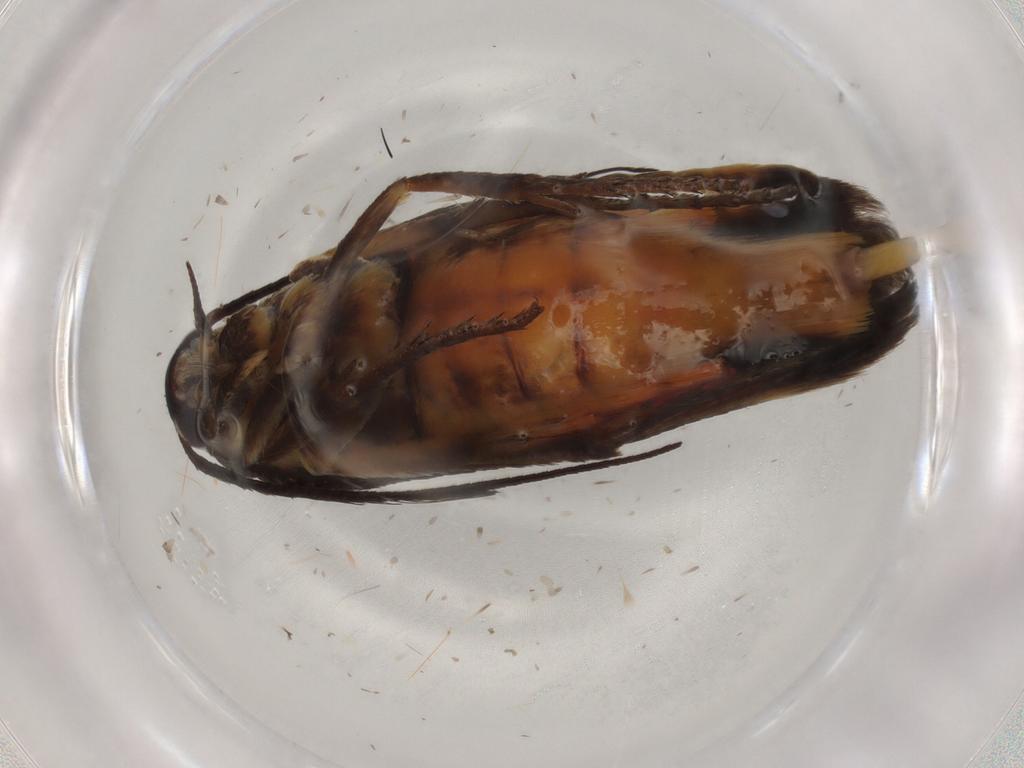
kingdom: Animalia
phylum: Arthropoda
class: Insecta
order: Lepidoptera
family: Scythrididae
